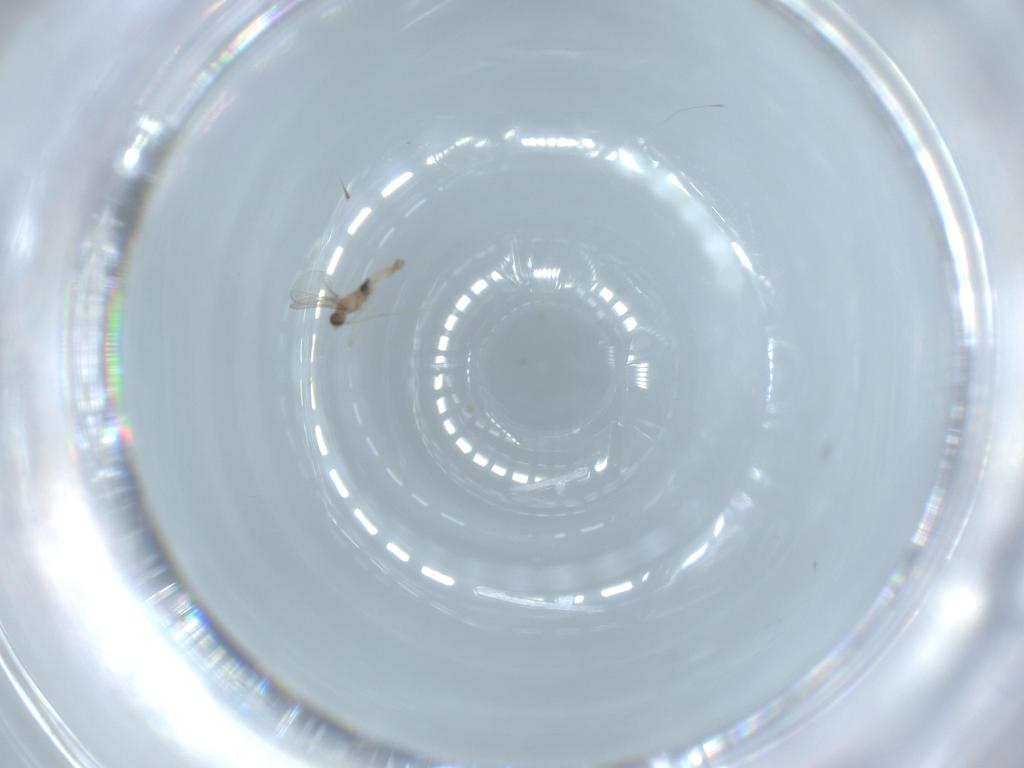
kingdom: Animalia
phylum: Arthropoda
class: Insecta
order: Diptera
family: Cecidomyiidae
